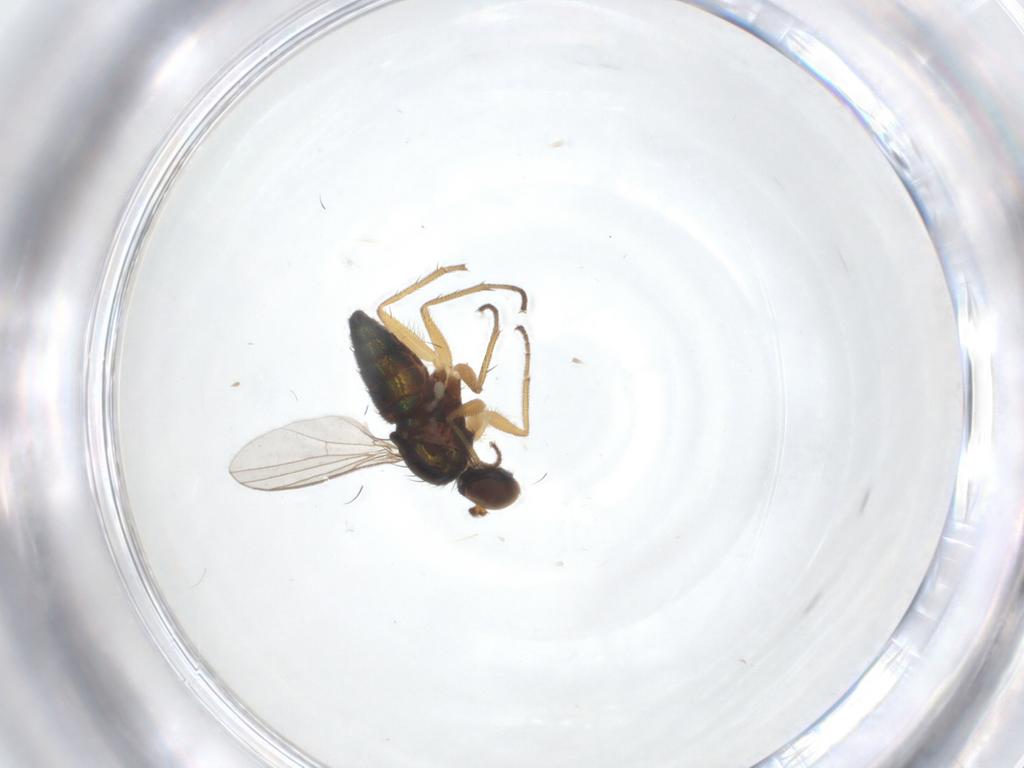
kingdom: Animalia
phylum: Arthropoda
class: Insecta
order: Diptera
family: Dolichopodidae
